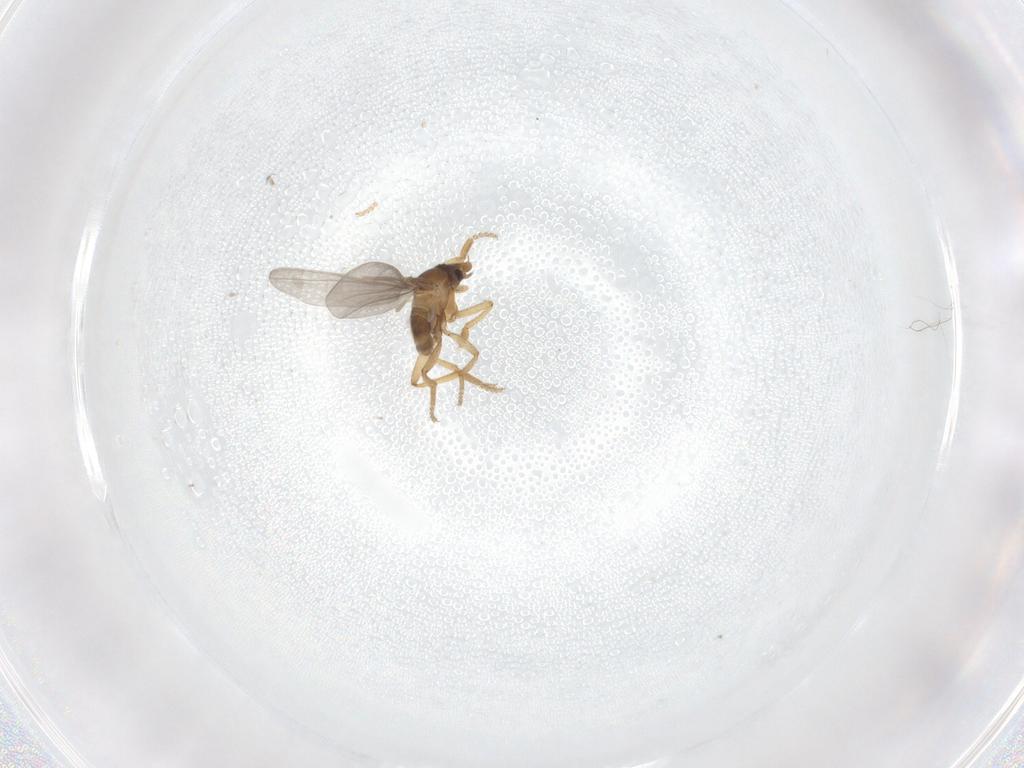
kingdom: Animalia
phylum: Arthropoda
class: Insecta
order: Diptera
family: Phoridae
